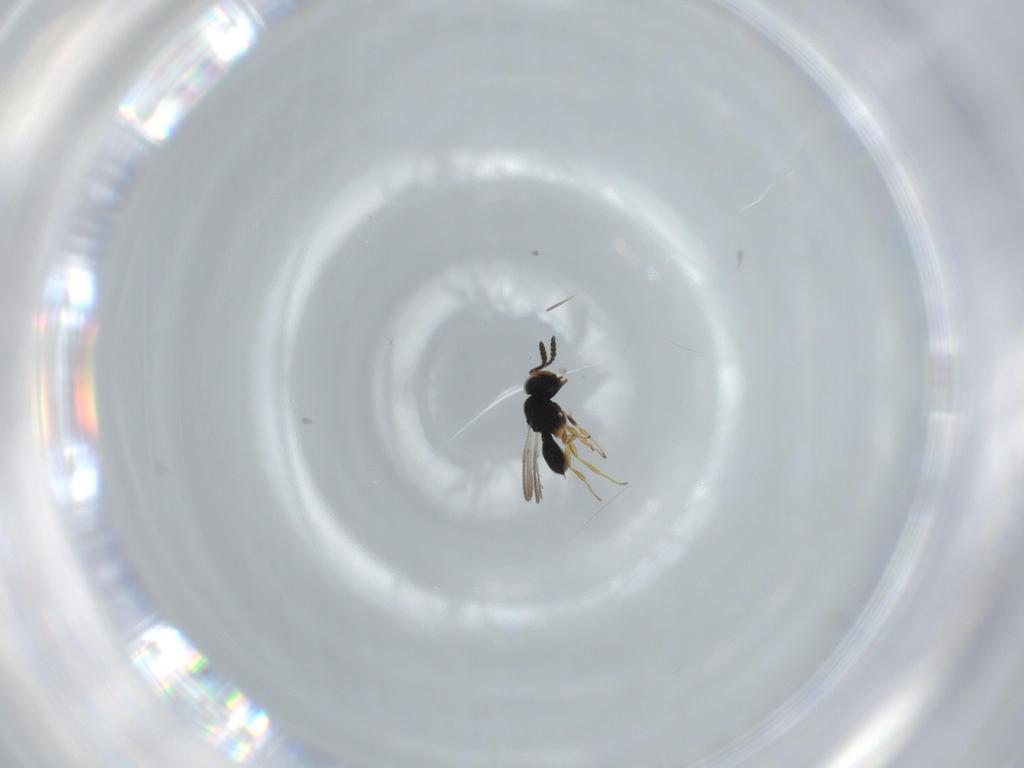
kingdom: Animalia
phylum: Arthropoda
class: Insecta
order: Hymenoptera
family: Scelionidae
